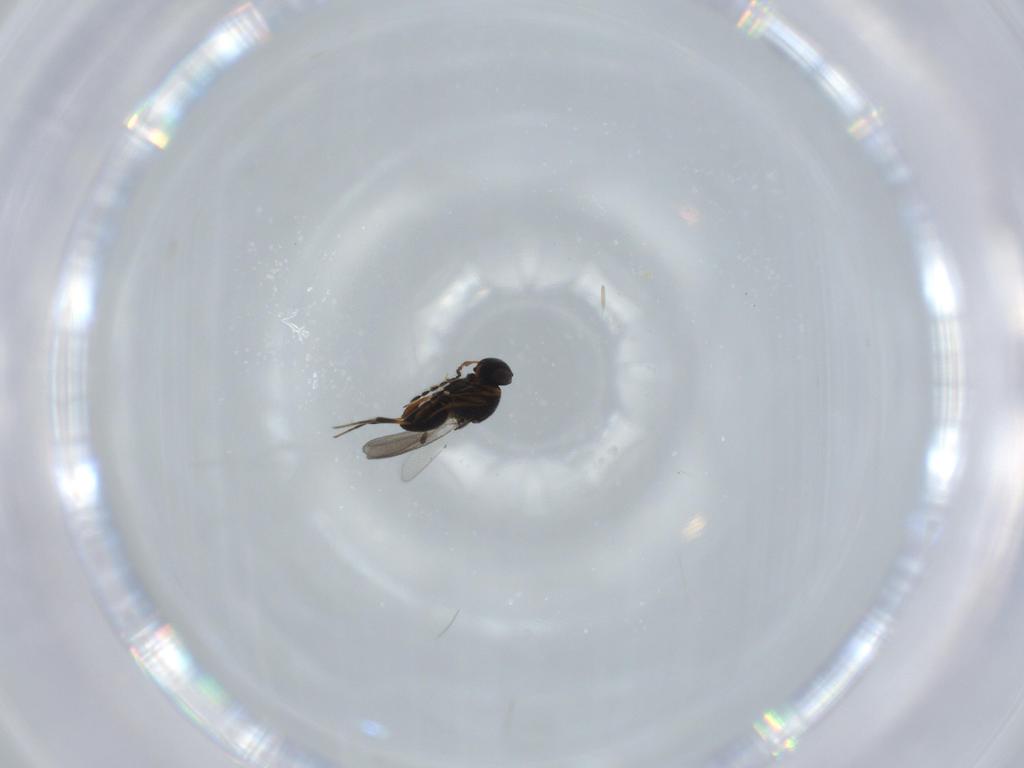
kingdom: Animalia
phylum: Arthropoda
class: Insecta
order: Hymenoptera
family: Platygastridae
